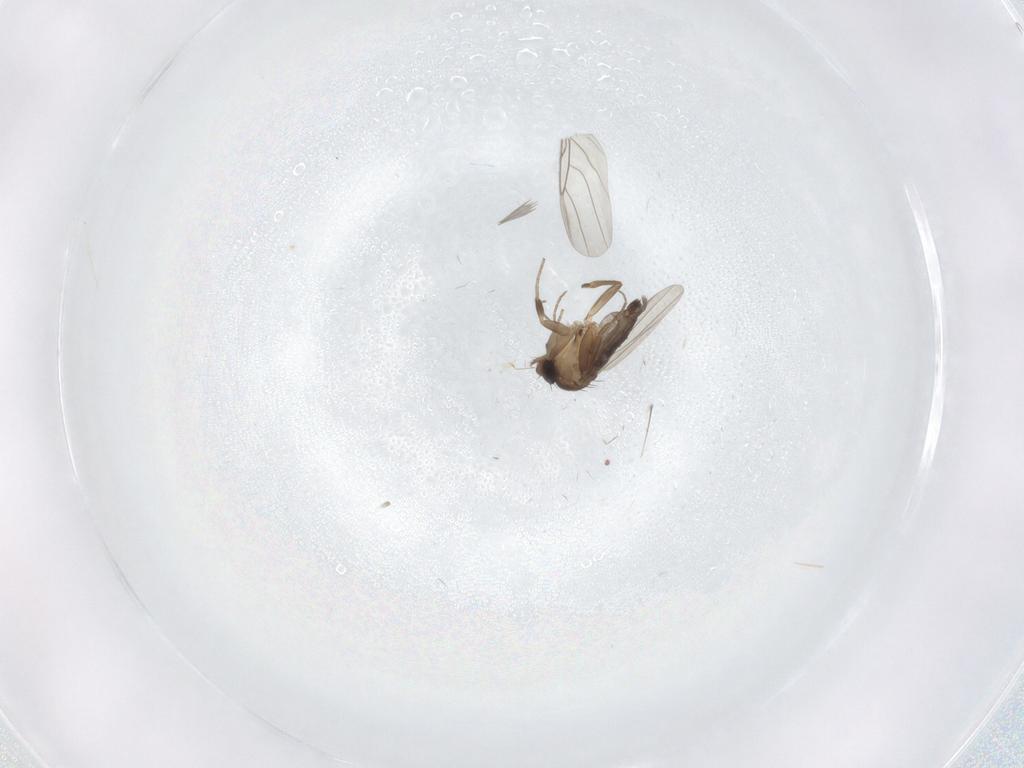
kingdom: Animalia
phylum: Arthropoda
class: Insecta
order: Diptera
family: Phoridae
